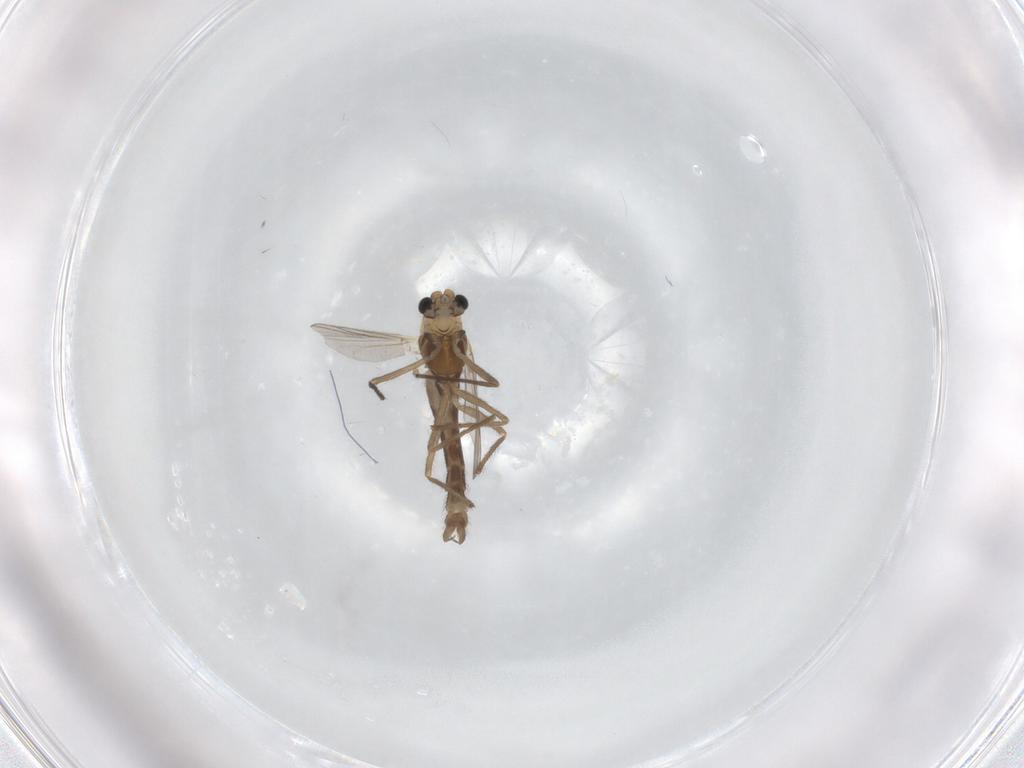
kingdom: Animalia
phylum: Arthropoda
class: Insecta
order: Diptera
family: Chironomidae
